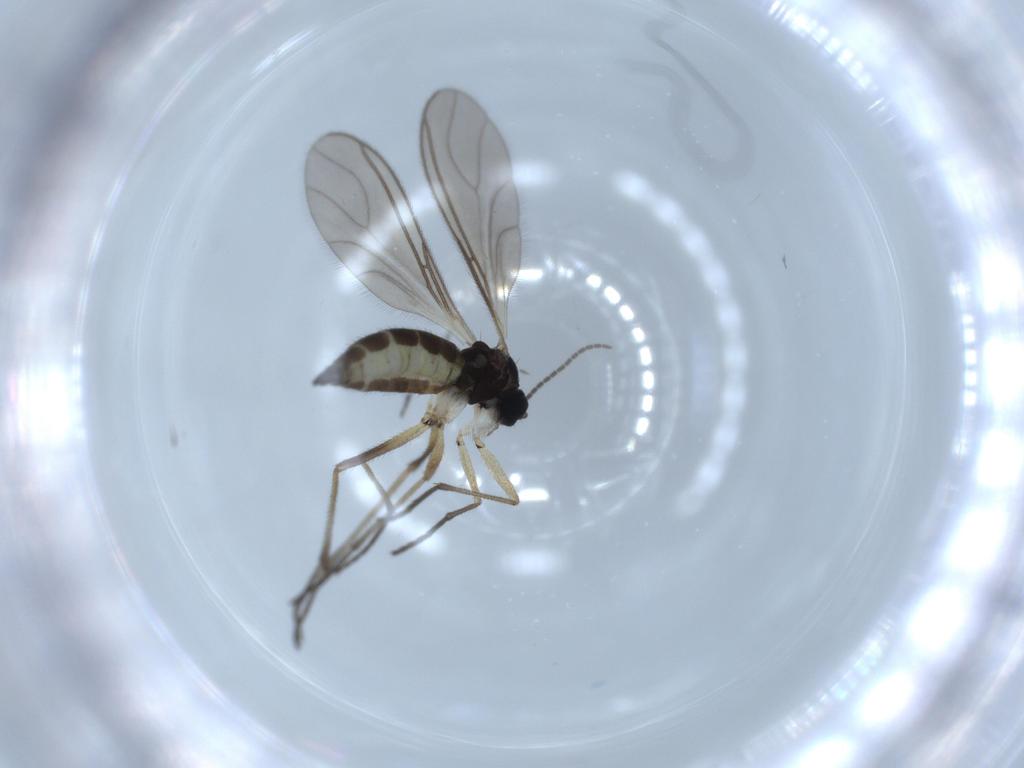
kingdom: Animalia
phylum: Arthropoda
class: Insecta
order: Diptera
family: Sciaridae
